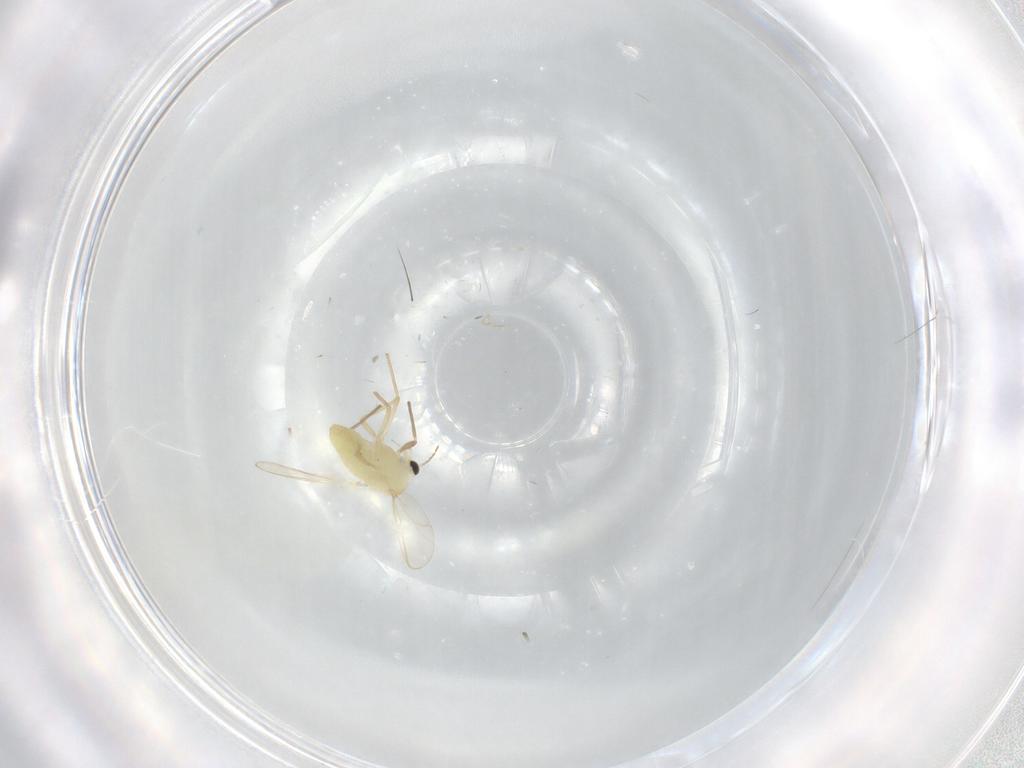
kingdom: Animalia
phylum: Arthropoda
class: Insecta
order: Diptera
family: Chironomidae
